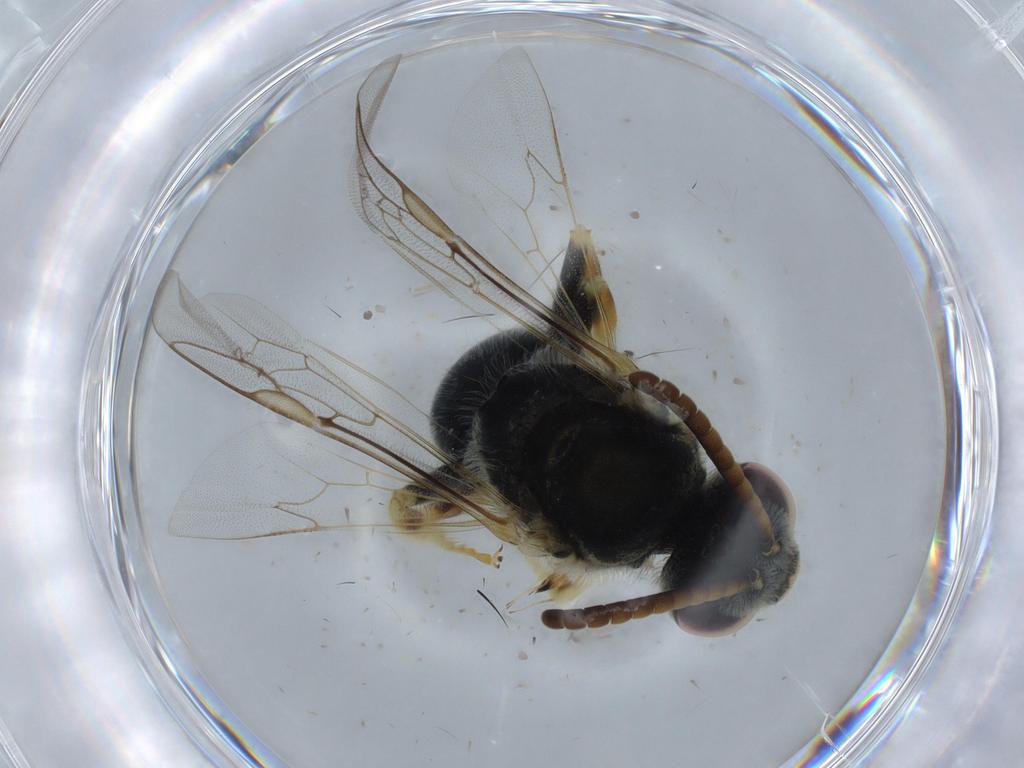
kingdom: Animalia
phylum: Arthropoda
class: Insecta
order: Hymenoptera
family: Halictidae
